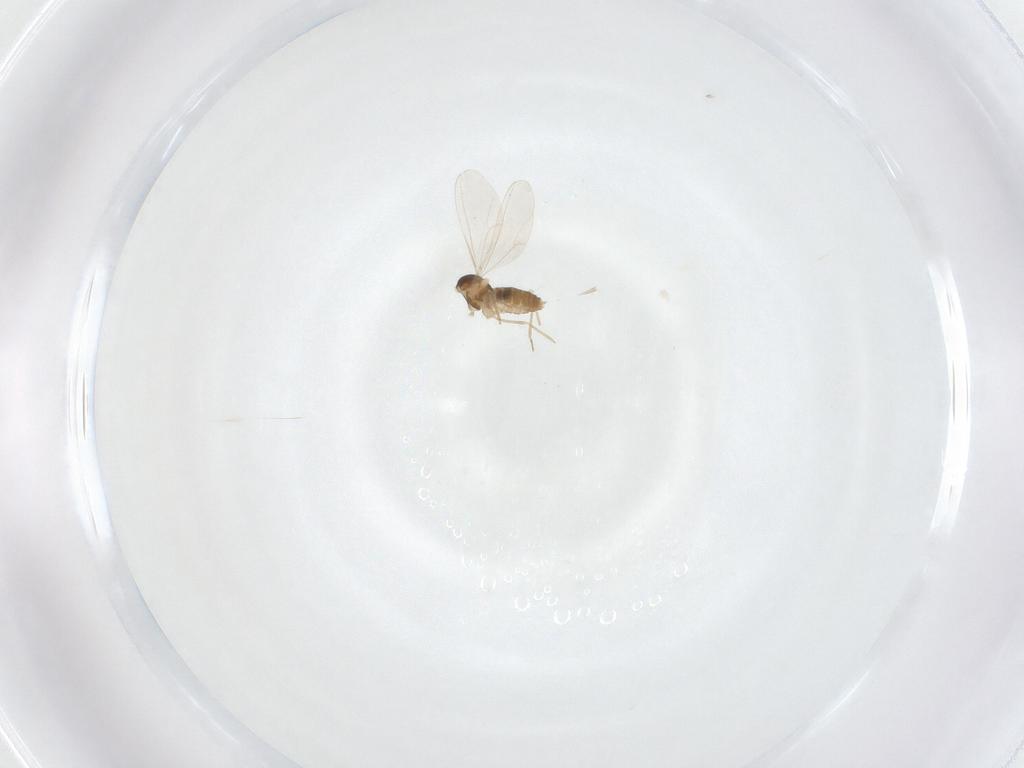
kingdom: Animalia
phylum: Arthropoda
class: Insecta
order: Diptera
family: Cecidomyiidae
